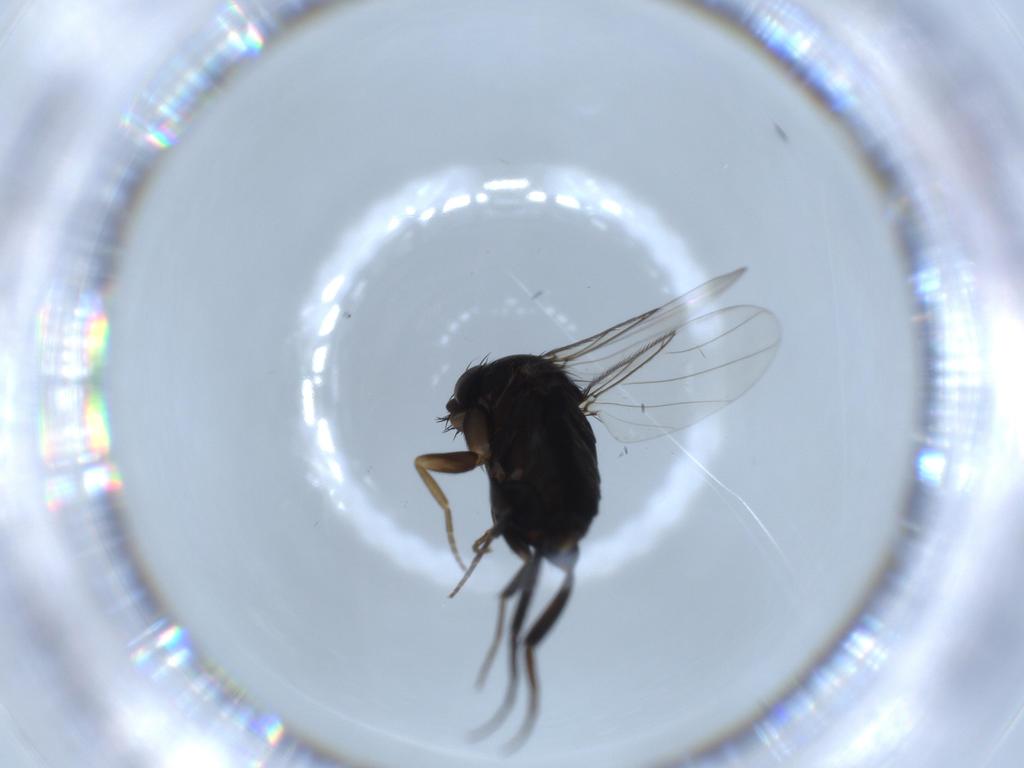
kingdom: Animalia
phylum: Arthropoda
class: Insecta
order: Diptera
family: Phoridae
